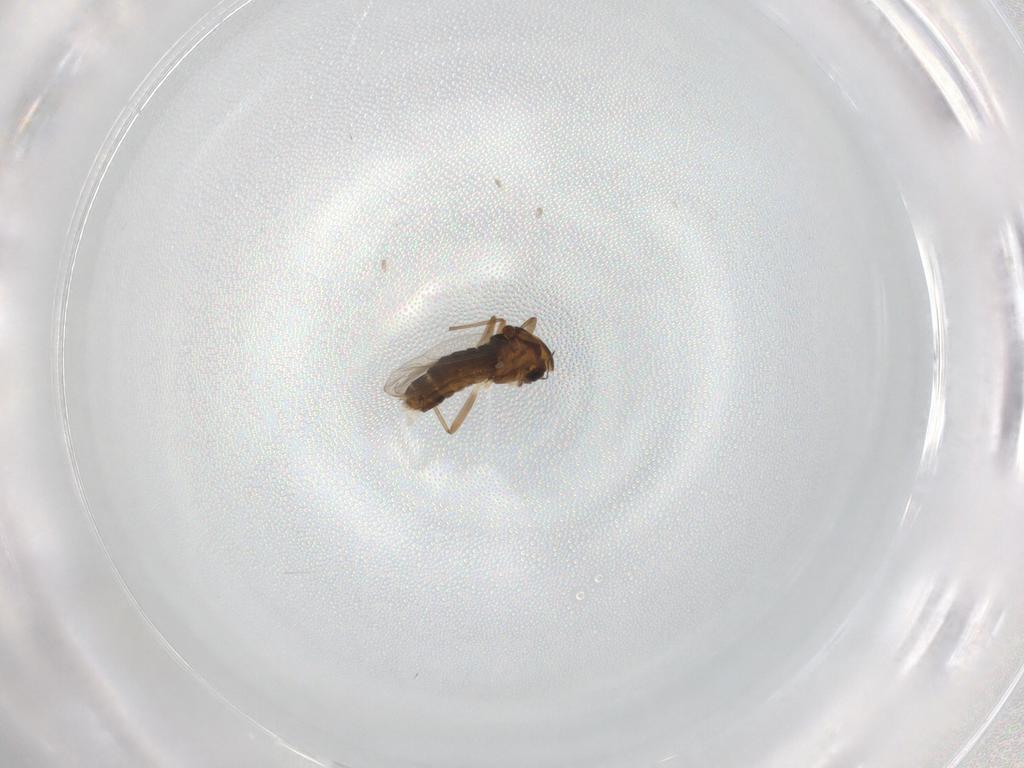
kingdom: Animalia
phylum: Arthropoda
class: Insecta
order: Diptera
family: Chironomidae
